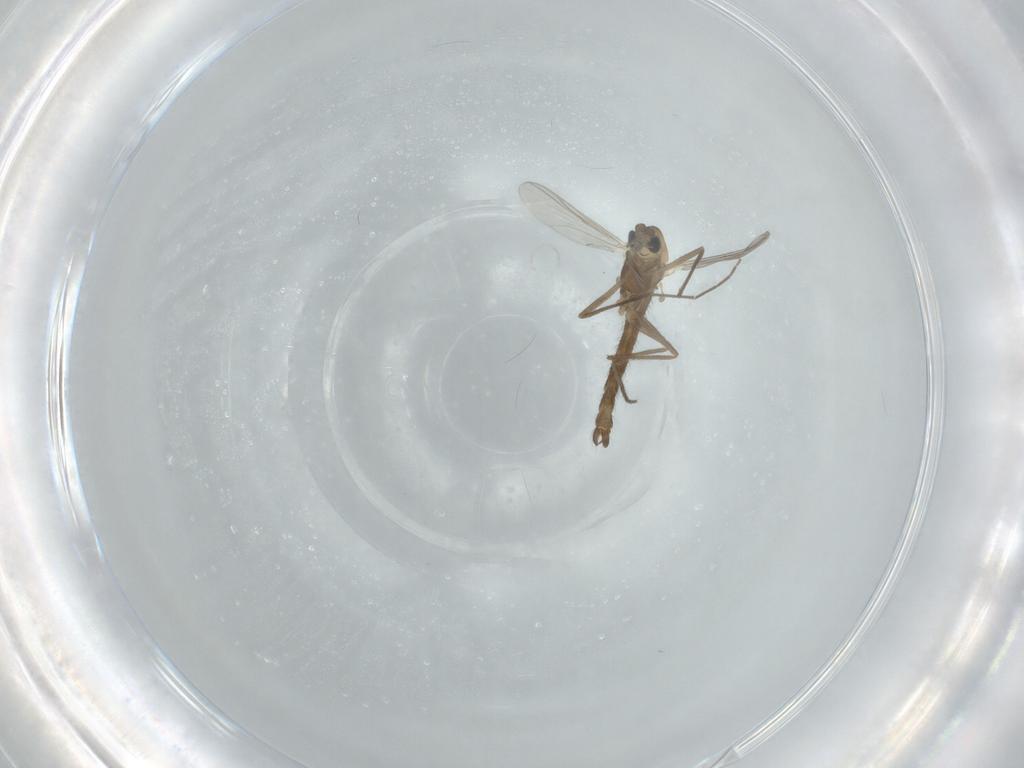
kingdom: Animalia
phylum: Arthropoda
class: Insecta
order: Diptera
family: Chironomidae
